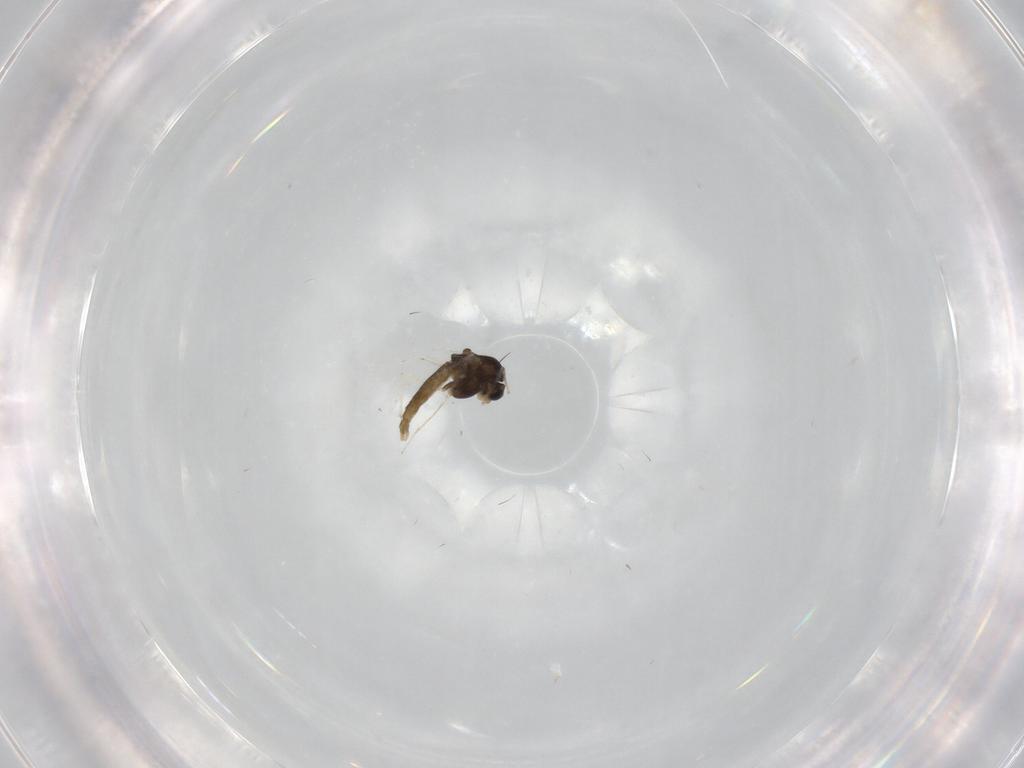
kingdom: Animalia
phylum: Arthropoda
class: Insecta
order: Diptera
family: Chironomidae
